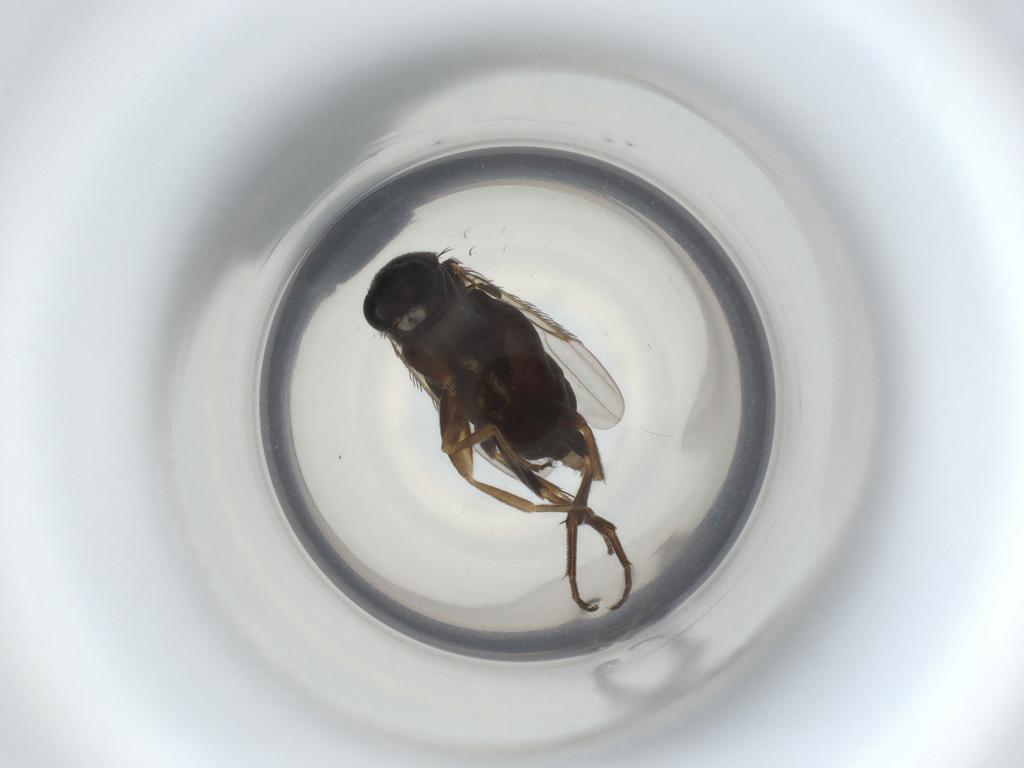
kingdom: Animalia
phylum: Arthropoda
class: Insecta
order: Diptera
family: Phoridae
